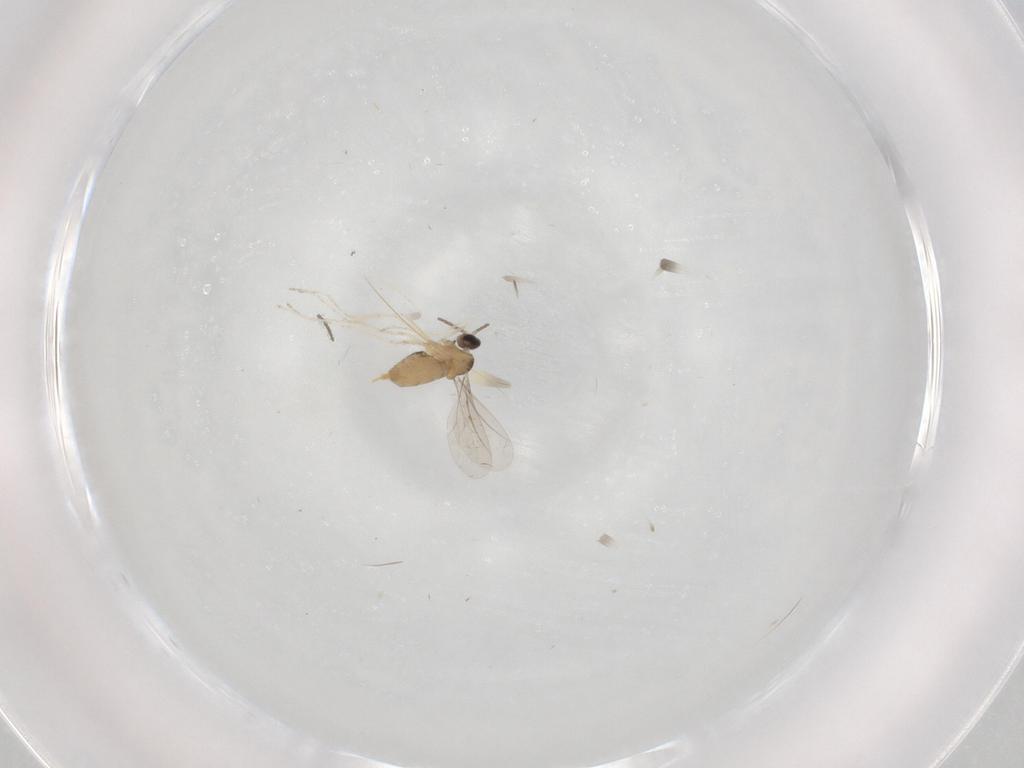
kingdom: Animalia
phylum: Arthropoda
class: Insecta
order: Diptera
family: Cecidomyiidae
